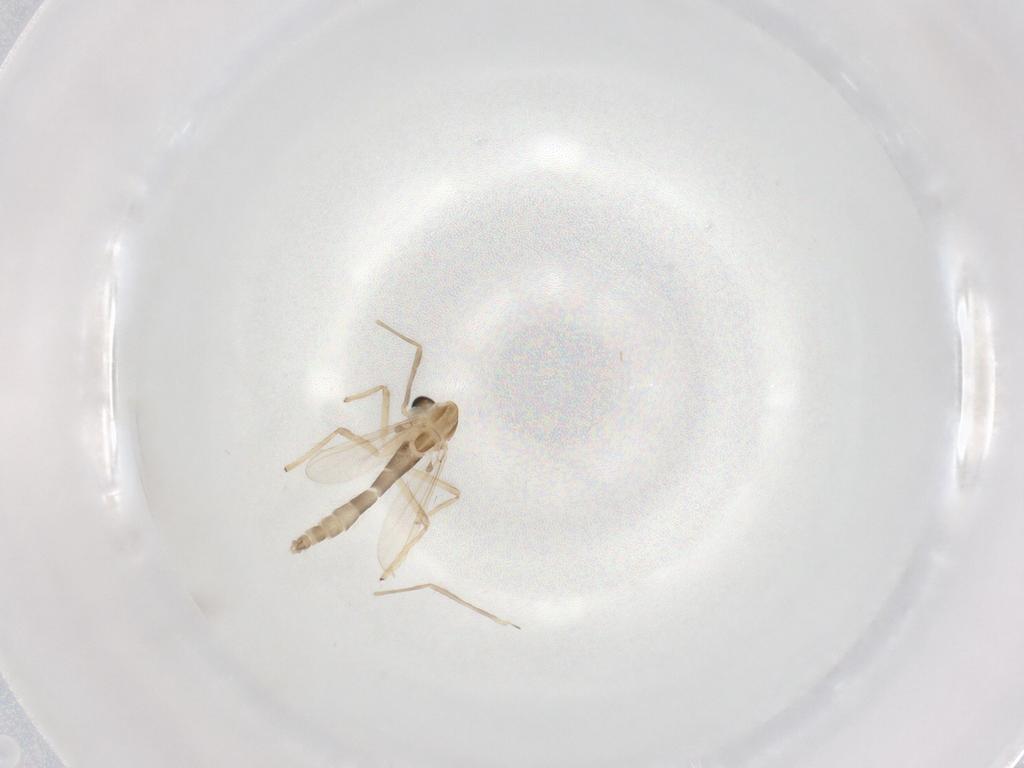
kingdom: Animalia
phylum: Arthropoda
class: Insecta
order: Diptera
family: Chironomidae
